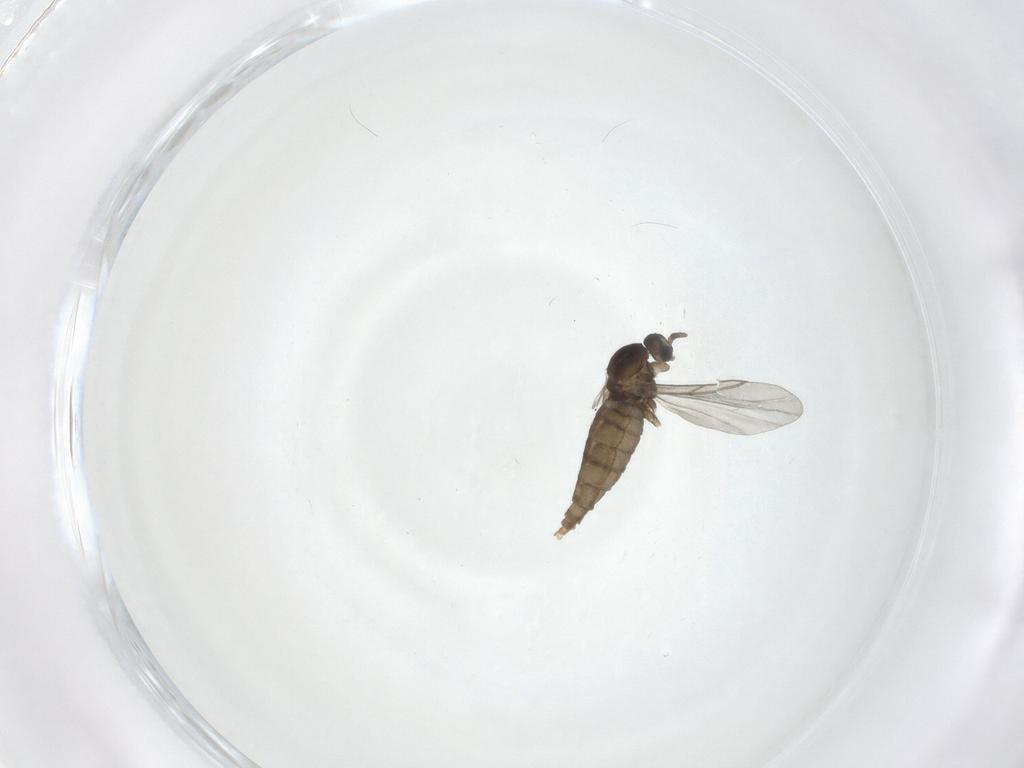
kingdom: Animalia
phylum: Arthropoda
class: Insecta
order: Diptera
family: Cecidomyiidae
